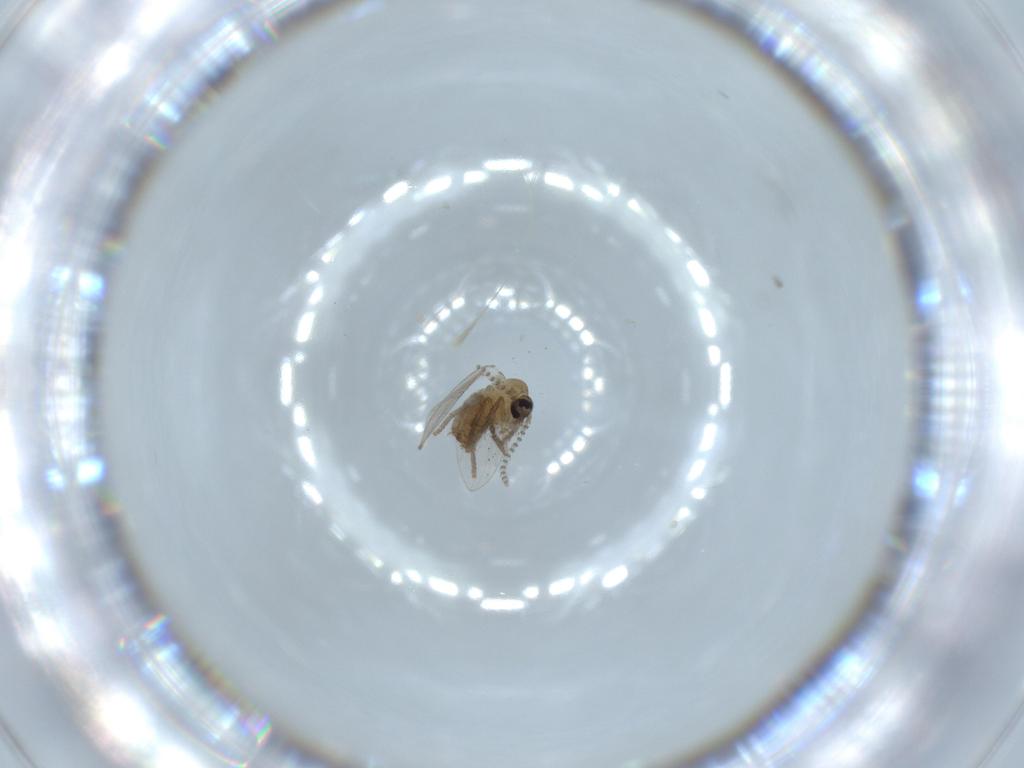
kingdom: Animalia
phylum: Arthropoda
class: Insecta
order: Diptera
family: Psychodidae
